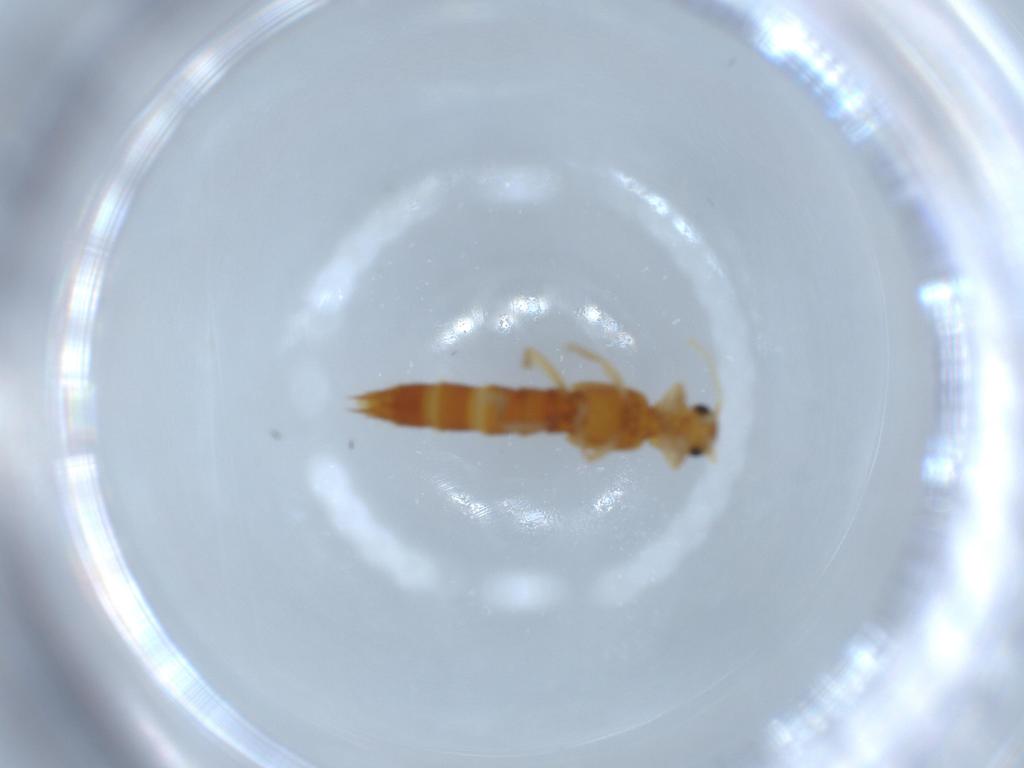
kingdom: Animalia
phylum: Arthropoda
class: Insecta
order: Coleoptera
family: Staphylinidae
